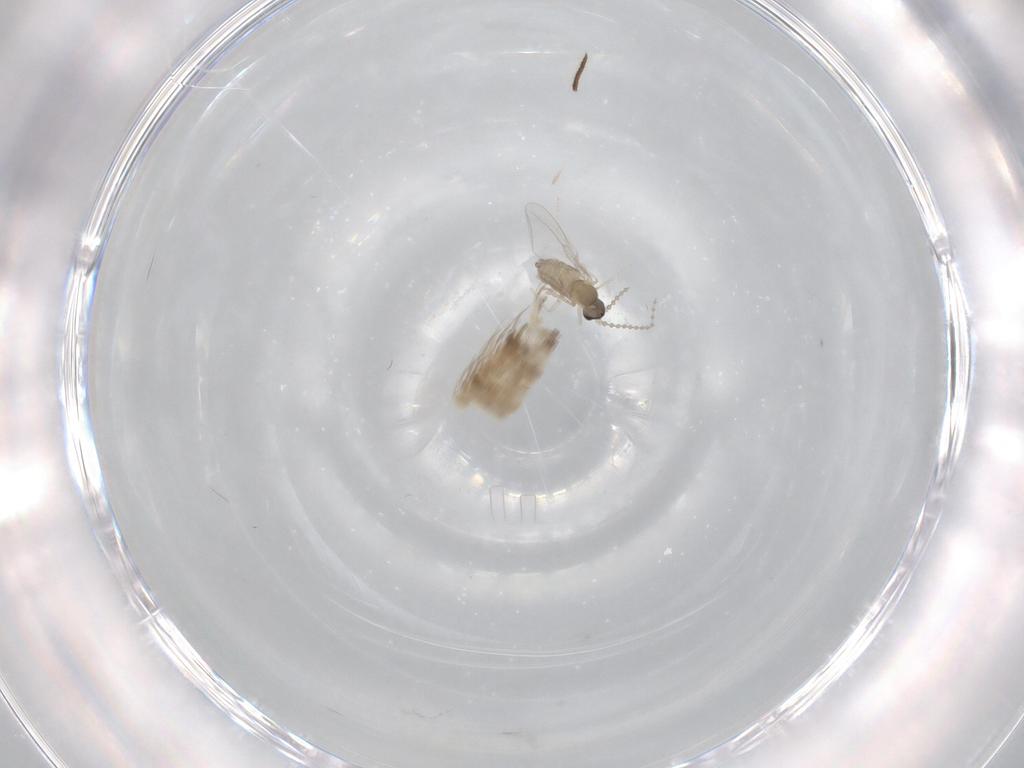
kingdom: Animalia
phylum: Arthropoda
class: Insecta
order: Diptera
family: Cecidomyiidae
